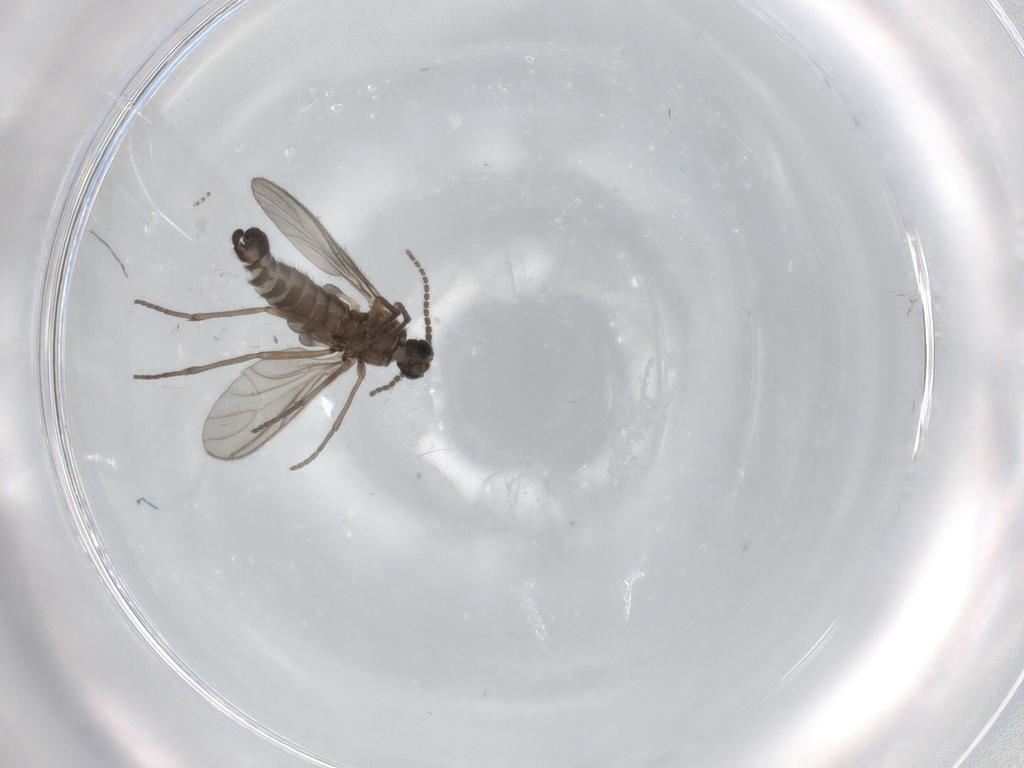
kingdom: Animalia
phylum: Arthropoda
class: Insecta
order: Diptera
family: Psychodidae
